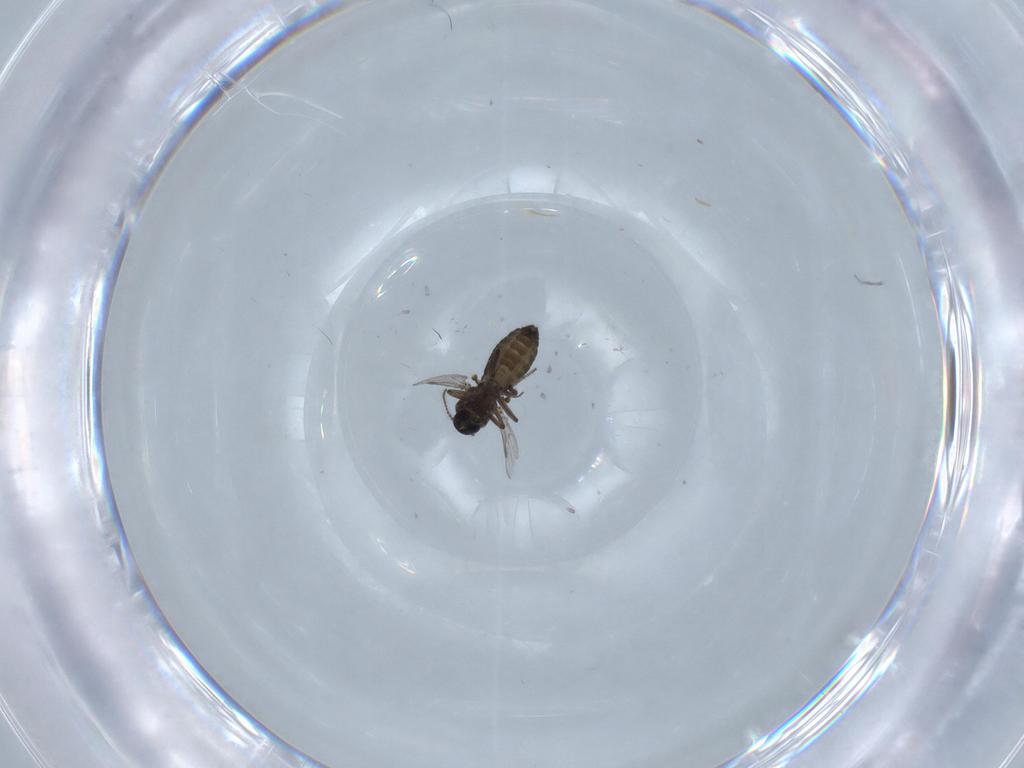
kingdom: Animalia
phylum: Arthropoda
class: Insecta
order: Diptera
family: Ceratopogonidae
